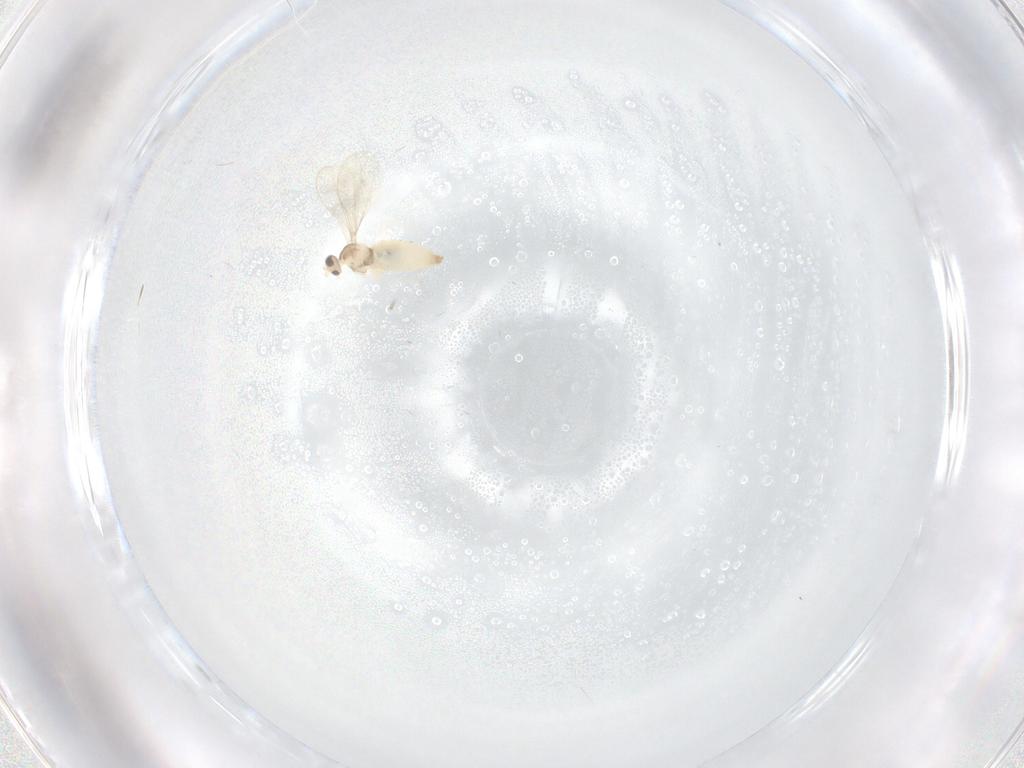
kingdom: Animalia
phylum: Arthropoda
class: Insecta
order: Diptera
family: Cecidomyiidae
